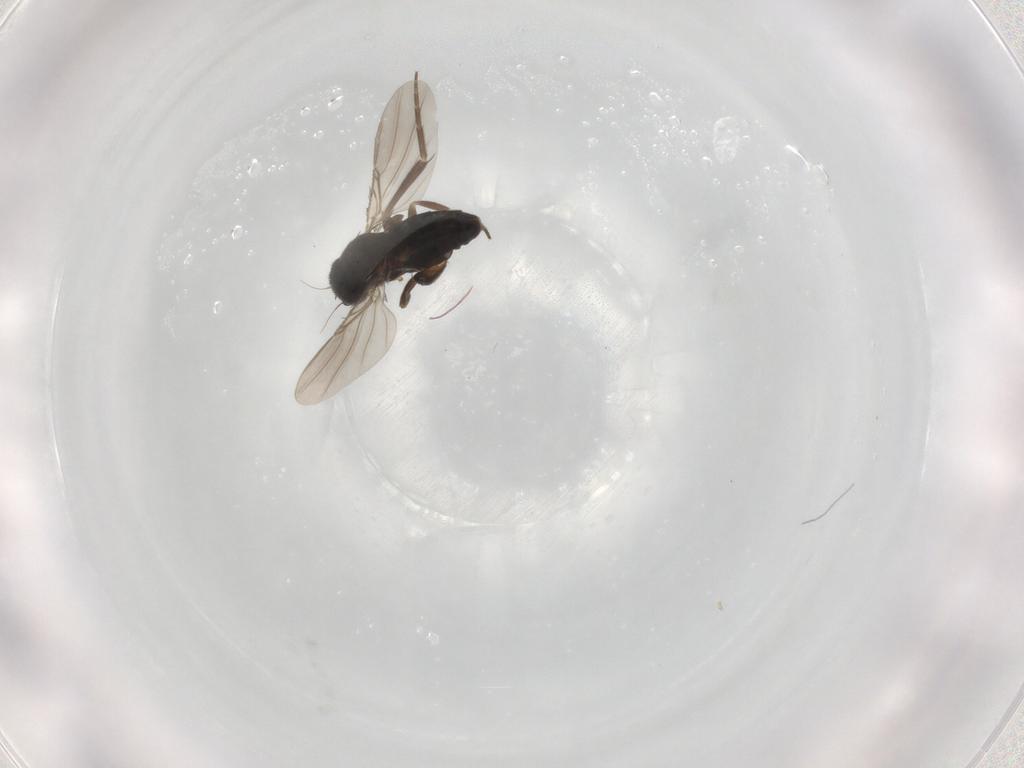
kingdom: Animalia
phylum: Arthropoda
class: Insecta
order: Diptera
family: Phoridae
